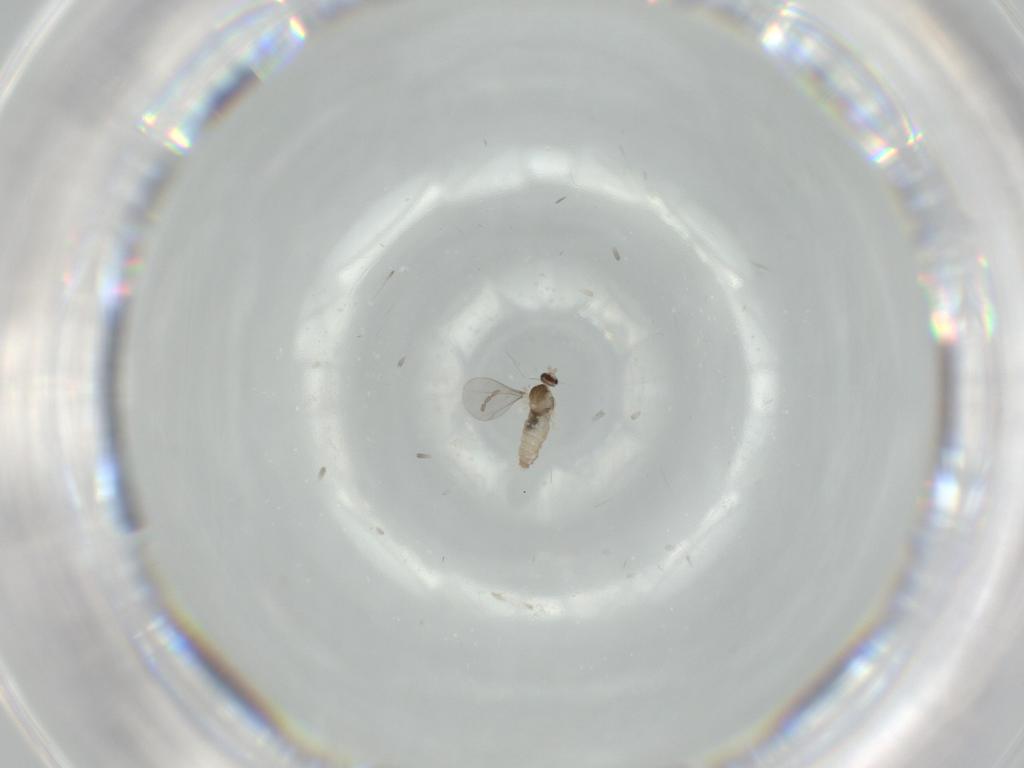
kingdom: Animalia
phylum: Arthropoda
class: Insecta
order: Diptera
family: Cecidomyiidae
